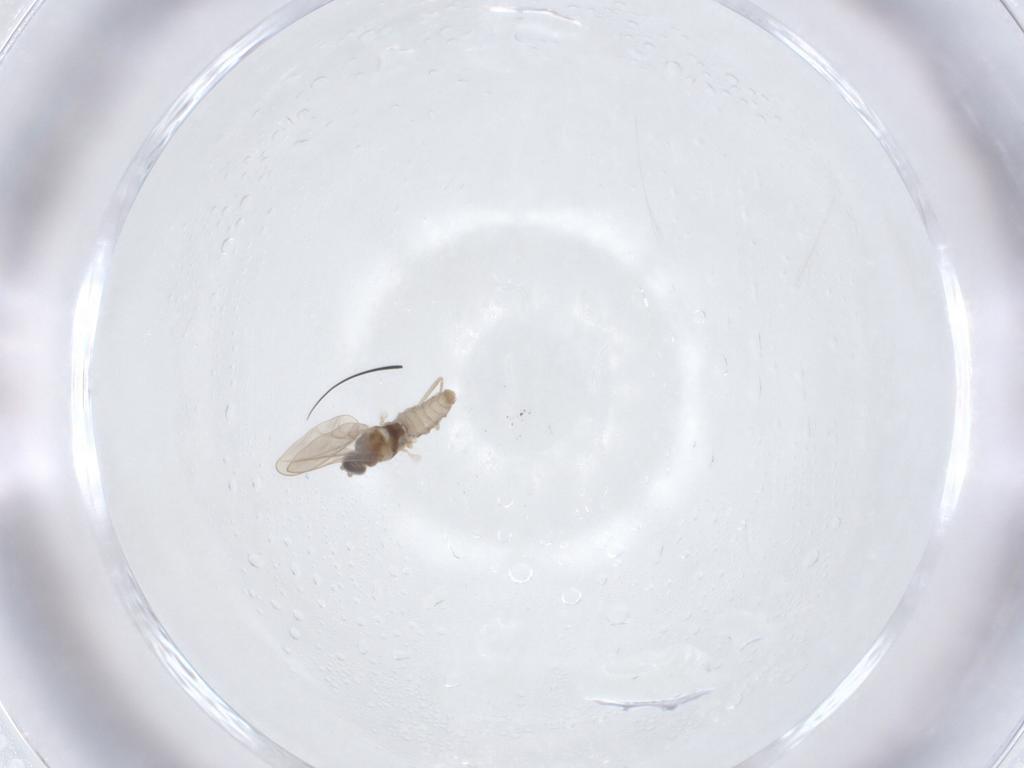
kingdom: Animalia
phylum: Arthropoda
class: Insecta
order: Diptera
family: Cecidomyiidae
